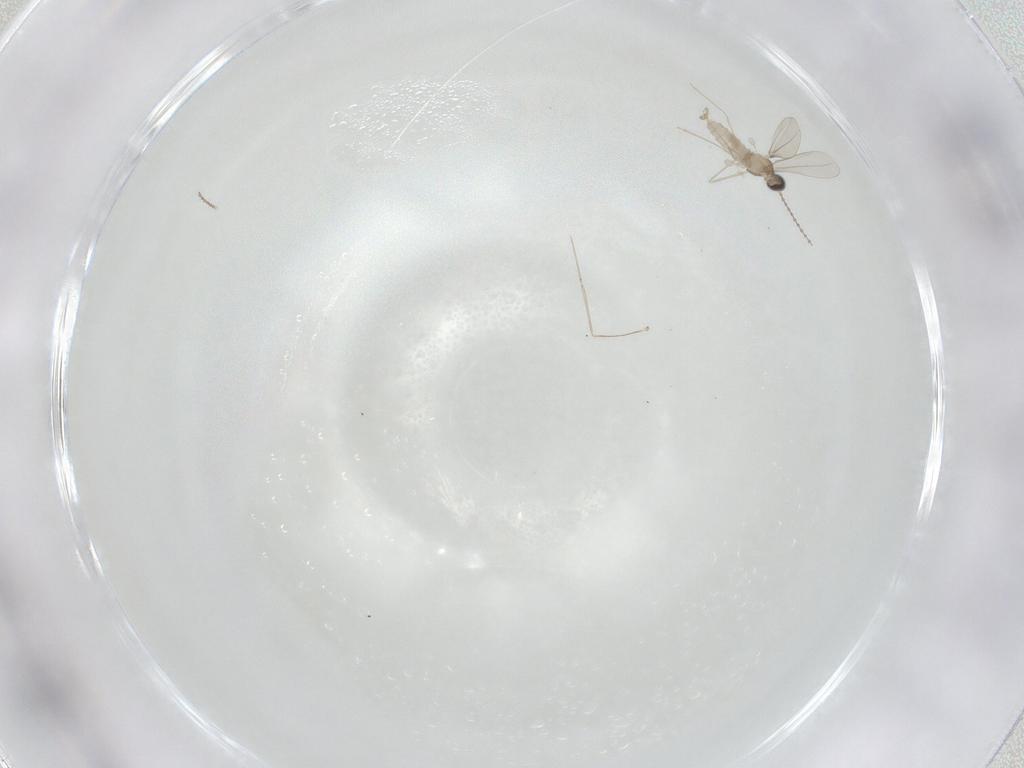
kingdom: Animalia
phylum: Arthropoda
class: Insecta
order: Diptera
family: Cecidomyiidae
